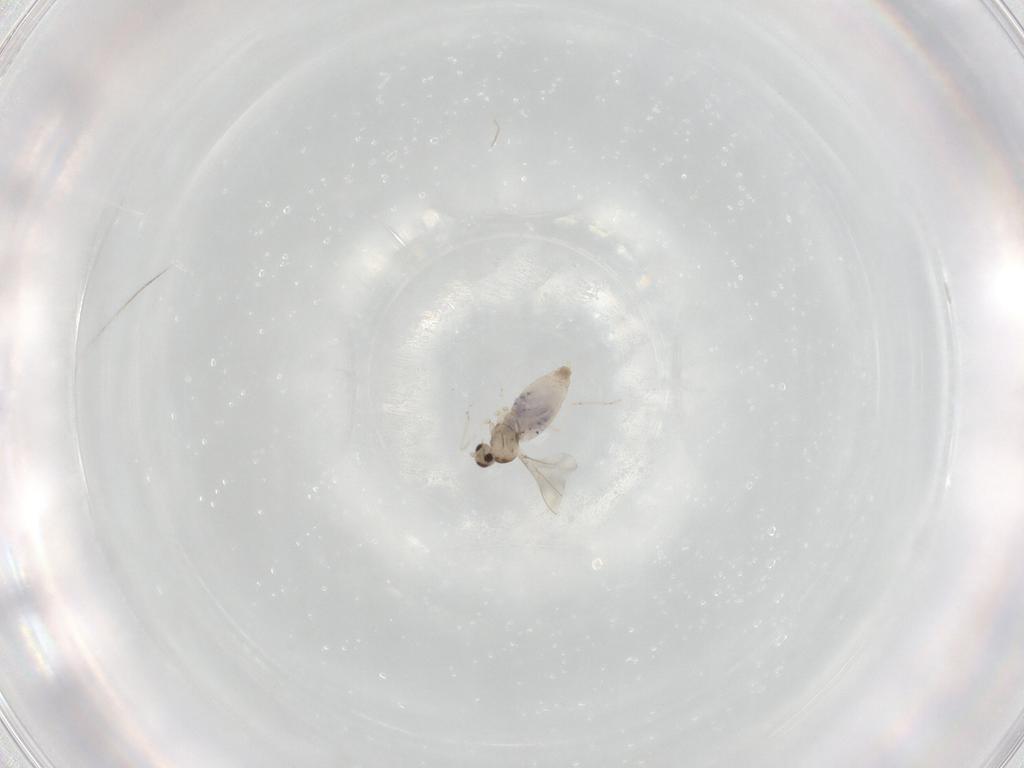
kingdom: Animalia
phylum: Arthropoda
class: Insecta
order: Diptera
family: Cecidomyiidae
